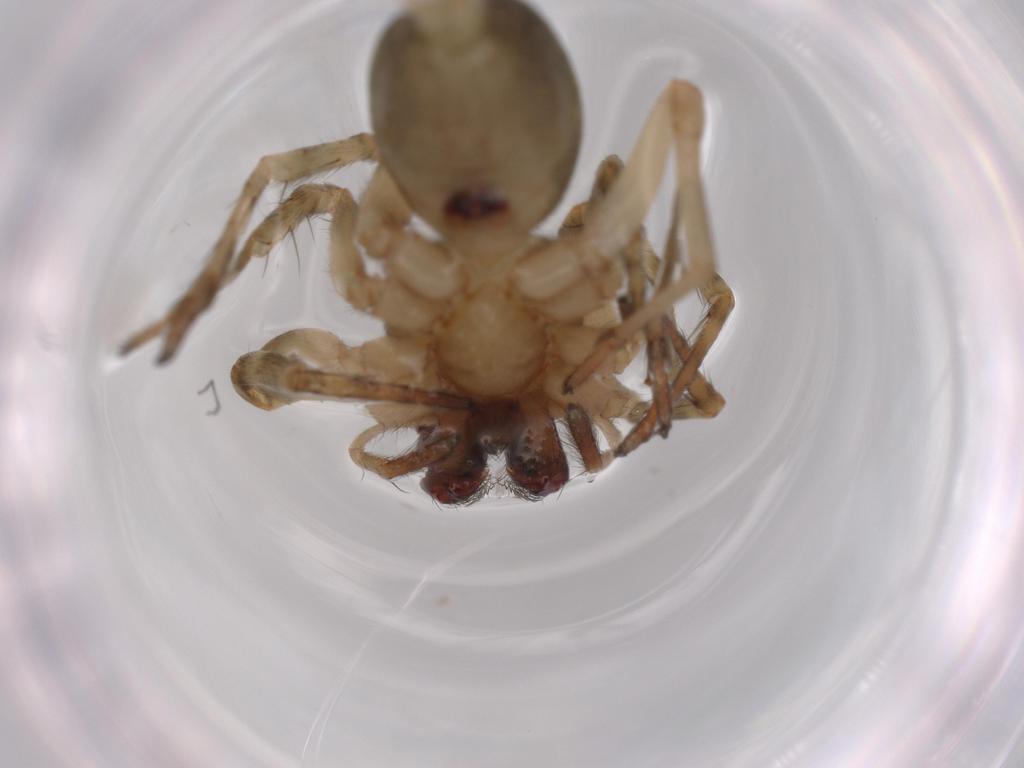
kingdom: Animalia
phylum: Arthropoda
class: Arachnida
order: Araneae
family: Anyphaenidae
